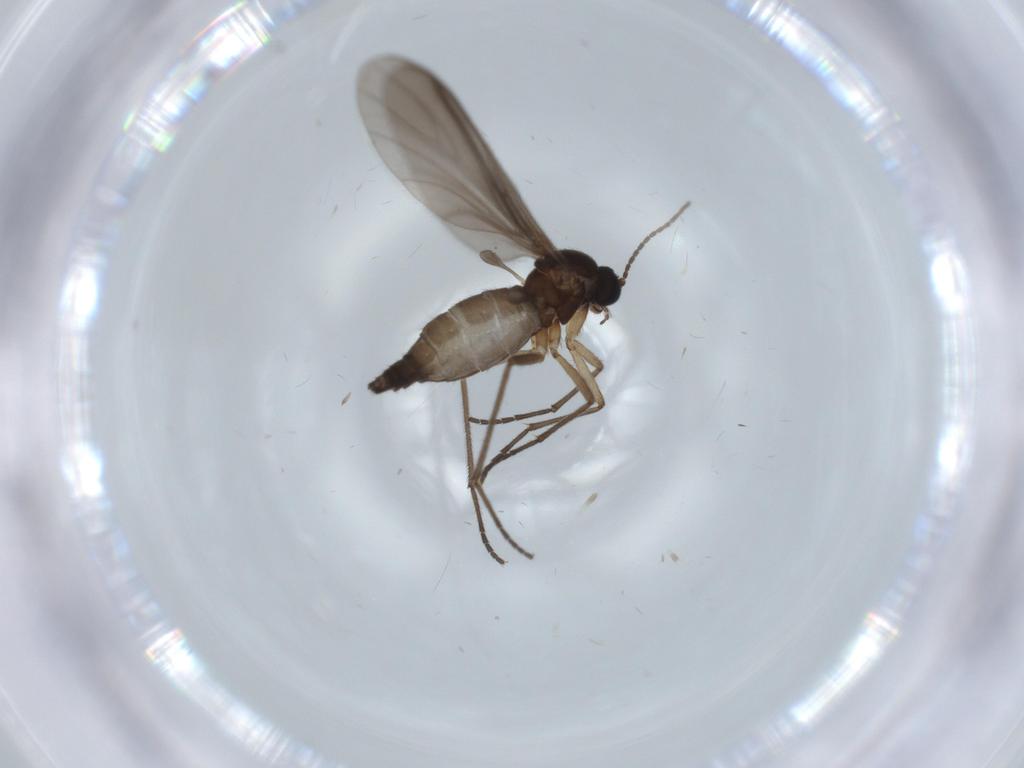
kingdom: Animalia
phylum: Arthropoda
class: Insecta
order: Diptera
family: Sciaridae
